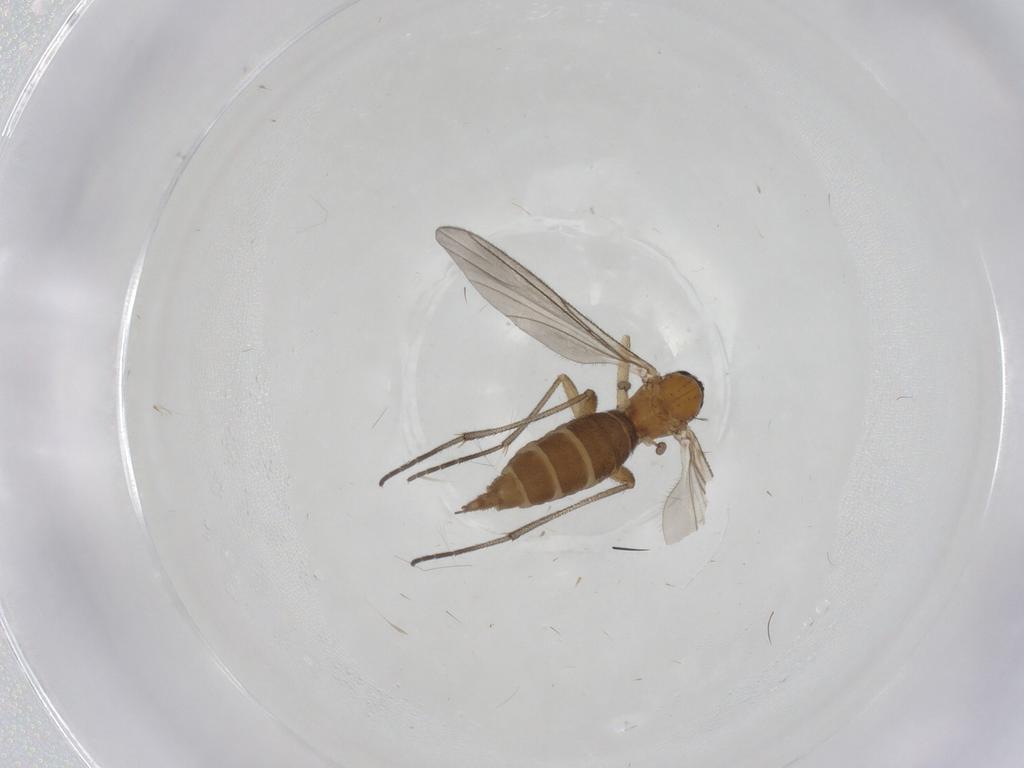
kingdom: Animalia
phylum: Arthropoda
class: Insecta
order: Diptera
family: Sciaridae
